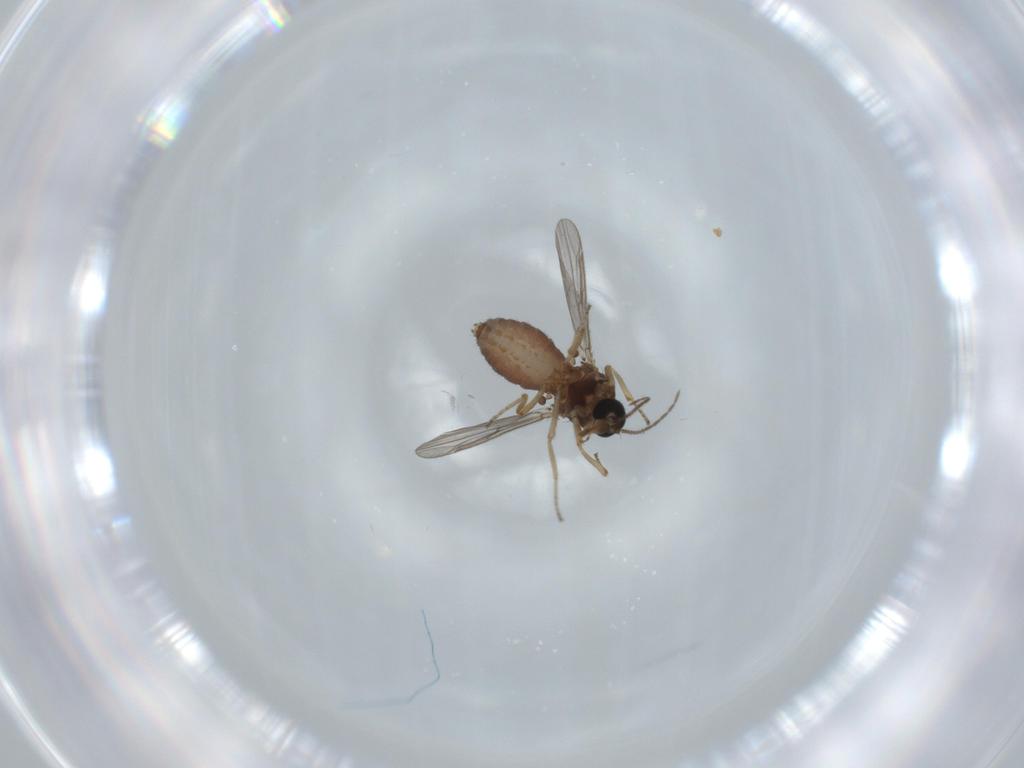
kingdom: Animalia
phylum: Arthropoda
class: Insecta
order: Diptera
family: Ceratopogonidae
